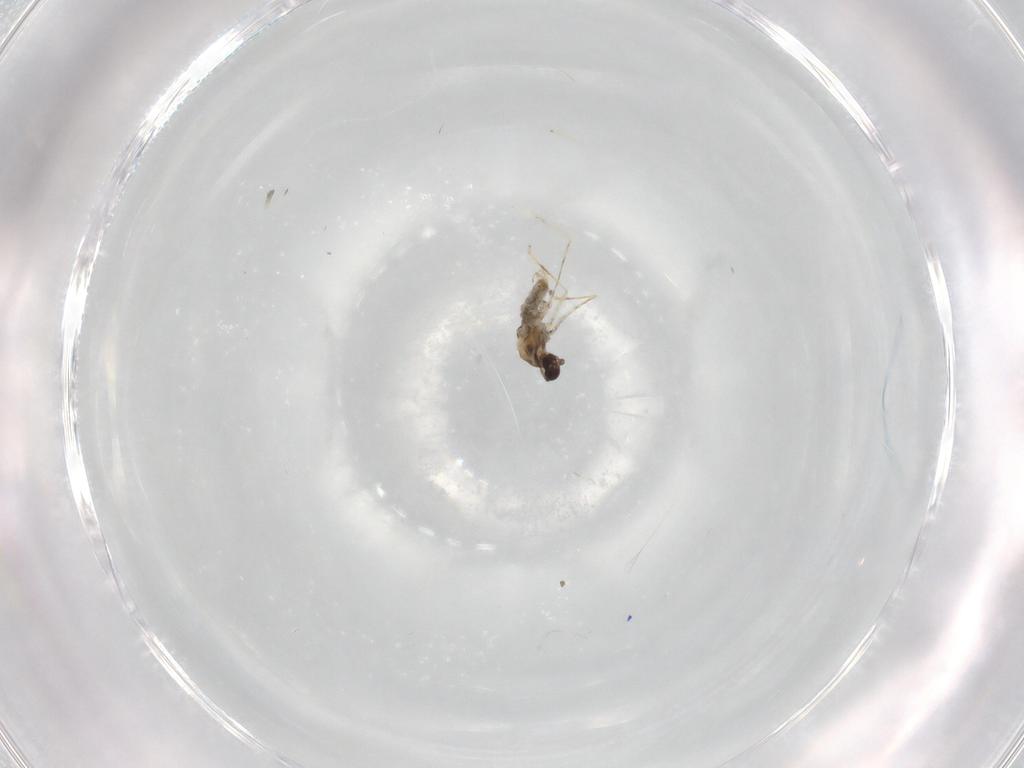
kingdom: Animalia
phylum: Arthropoda
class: Insecta
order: Diptera
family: Cecidomyiidae
